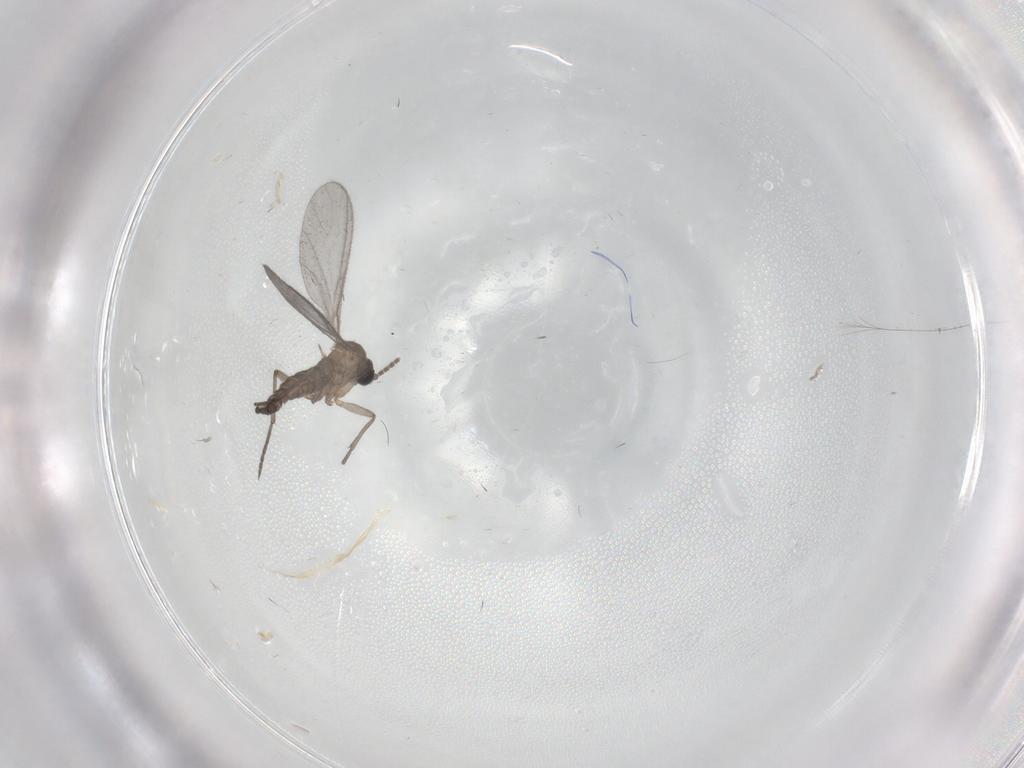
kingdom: Animalia
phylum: Arthropoda
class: Insecta
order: Diptera
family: Sciaridae
